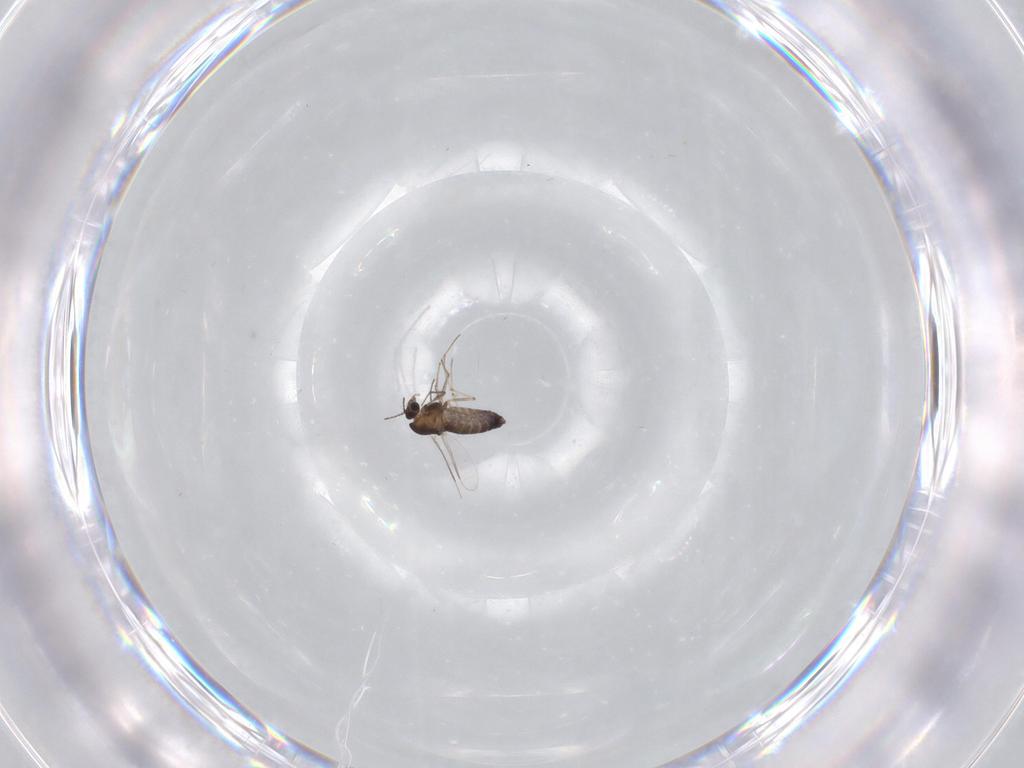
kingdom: Animalia
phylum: Arthropoda
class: Insecta
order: Diptera
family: Chironomidae
